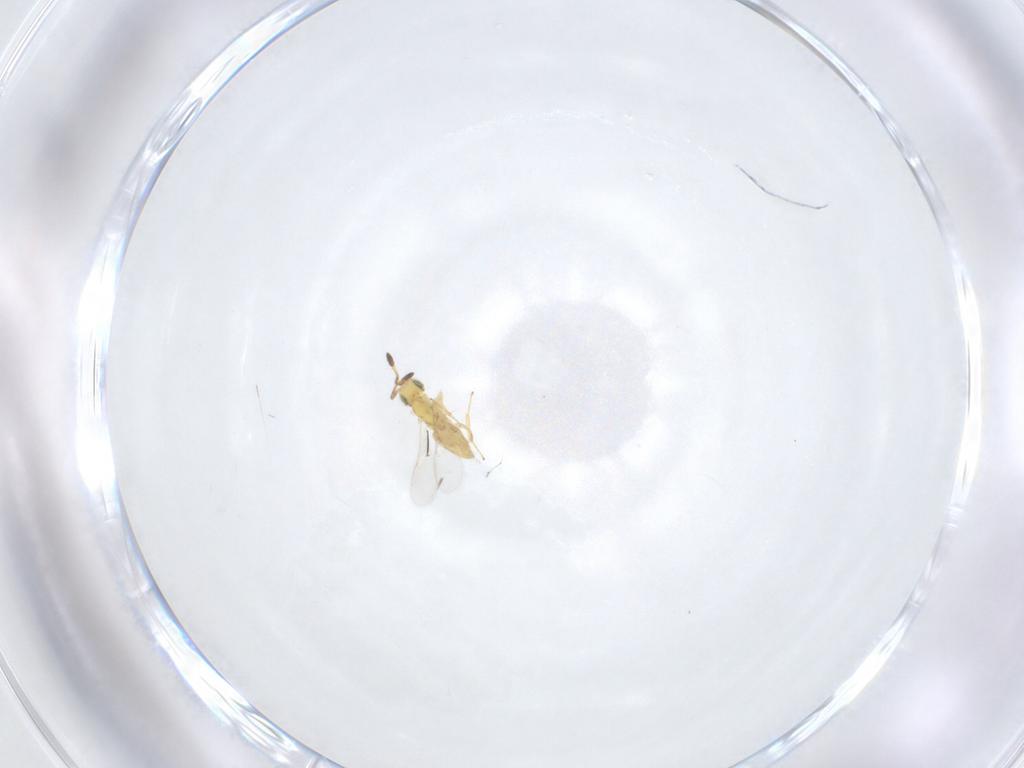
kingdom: Animalia
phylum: Arthropoda
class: Insecta
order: Hymenoptera
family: Braconidae
